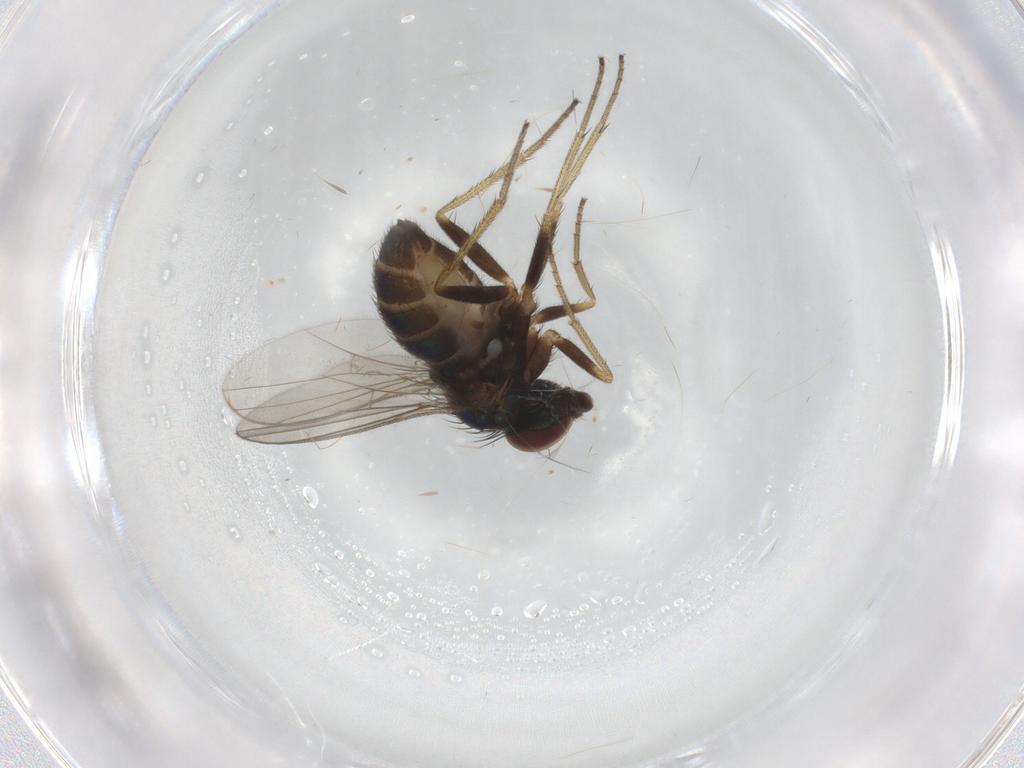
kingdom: Animalia
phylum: Arthropoda
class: Insecta
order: Diptera
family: Dolichopodidae
